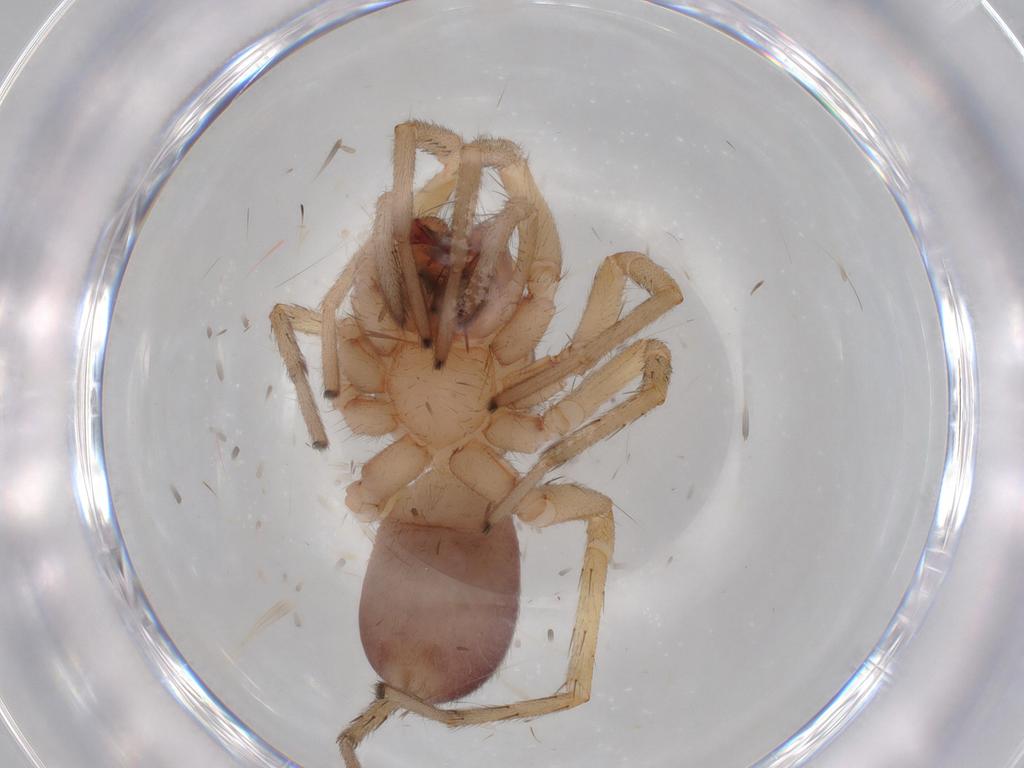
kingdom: Animalia
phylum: Arthropoda
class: Arachnida
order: Araneae
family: Corinnidae
